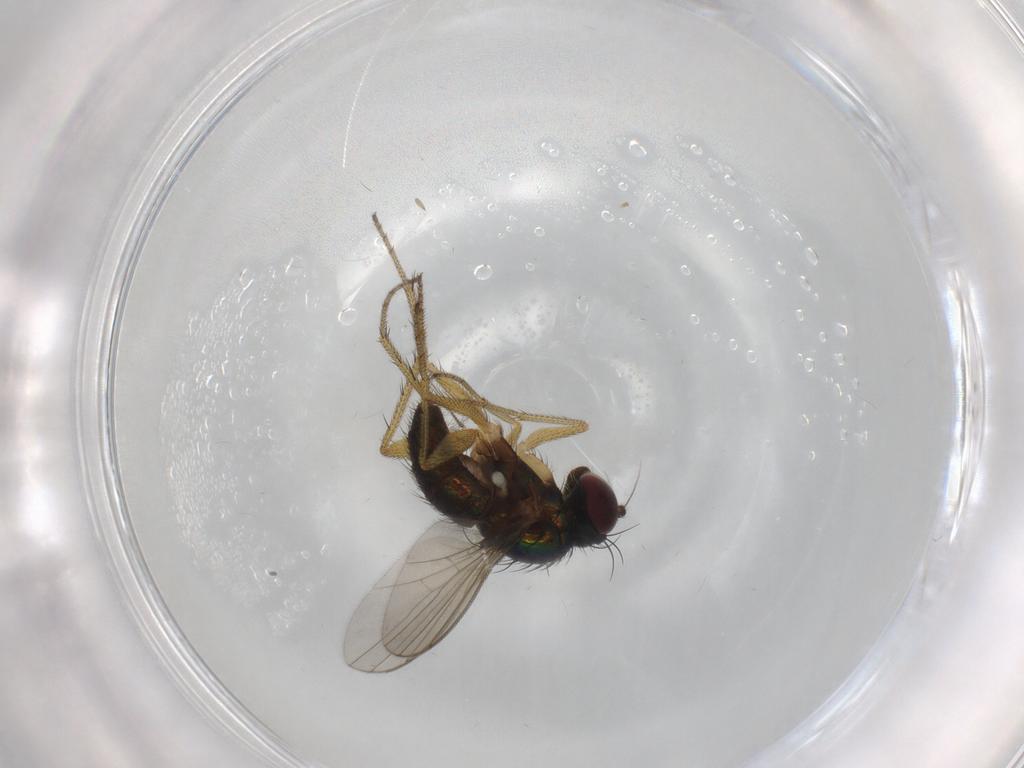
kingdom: Animalia
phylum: Arthropoda
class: Insecta
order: Diptera
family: Dolichopodidae
